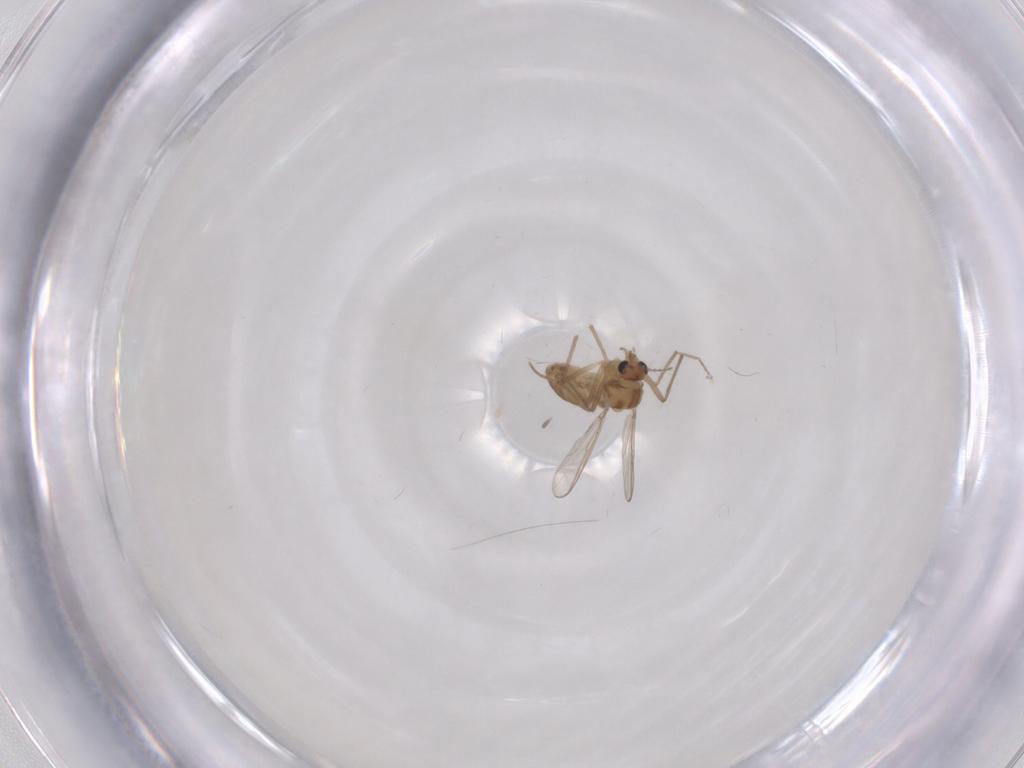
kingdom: Animalia
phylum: Arthropoda
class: Insecta
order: Diptera
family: Chironomidae
